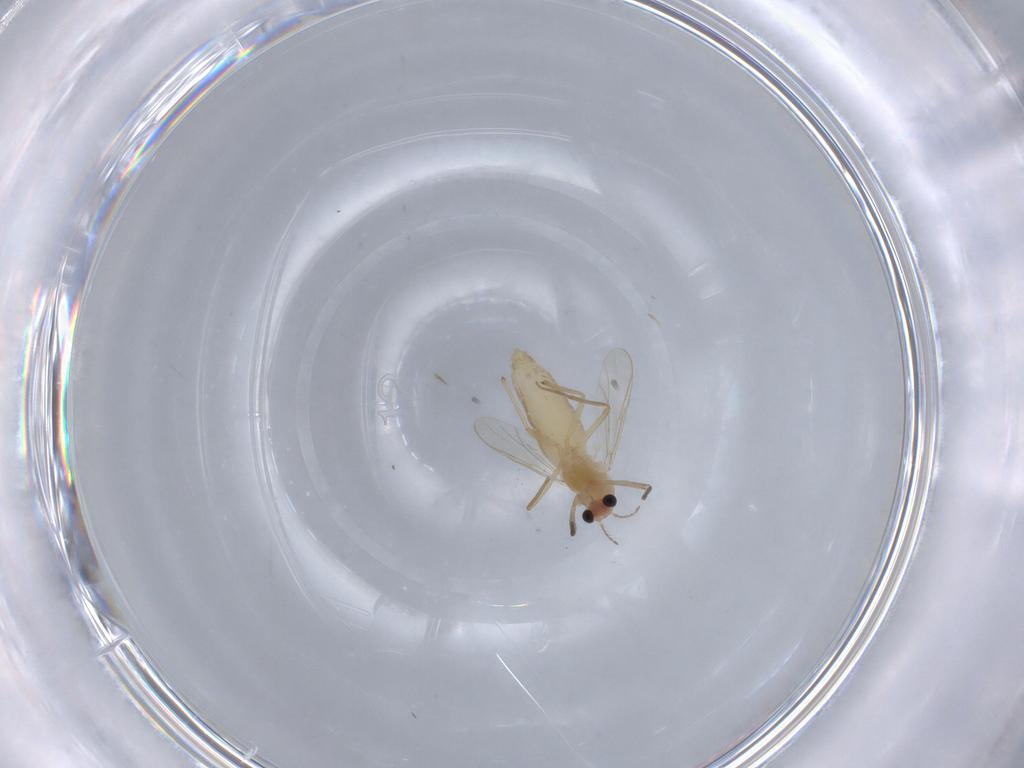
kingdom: Animalia
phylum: Arthropoda
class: Insecta
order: Diptera
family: Chironomidae
